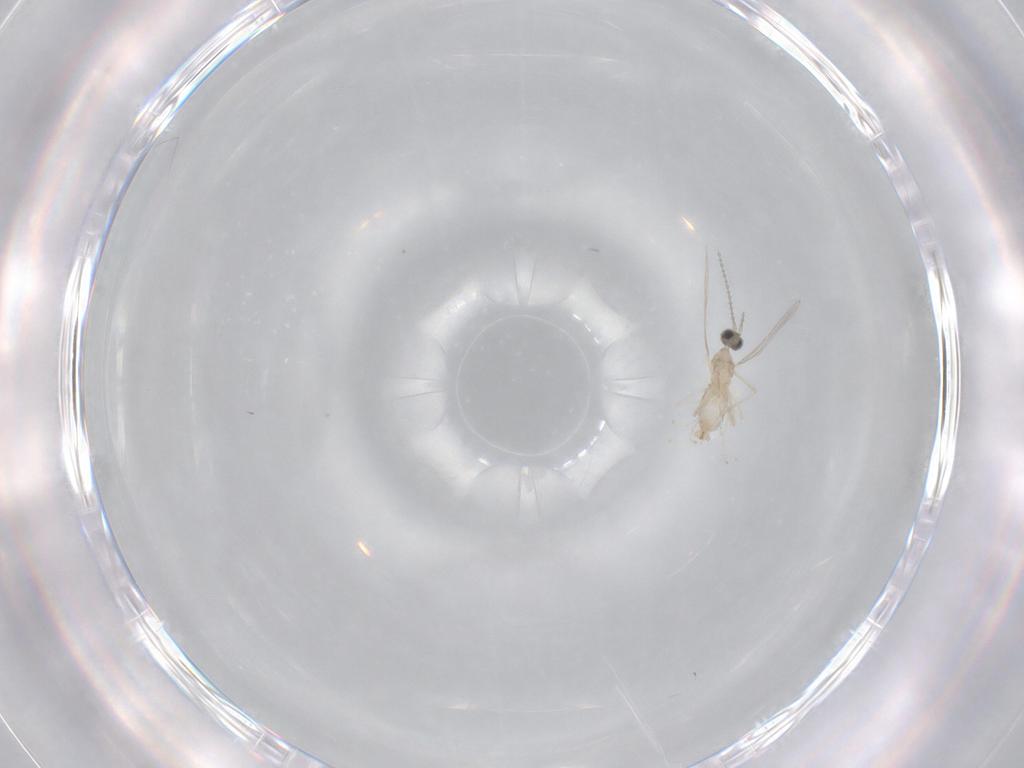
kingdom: Animalia
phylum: Arthropoda
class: Insecta
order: Diptera
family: Cecidomyiidae
